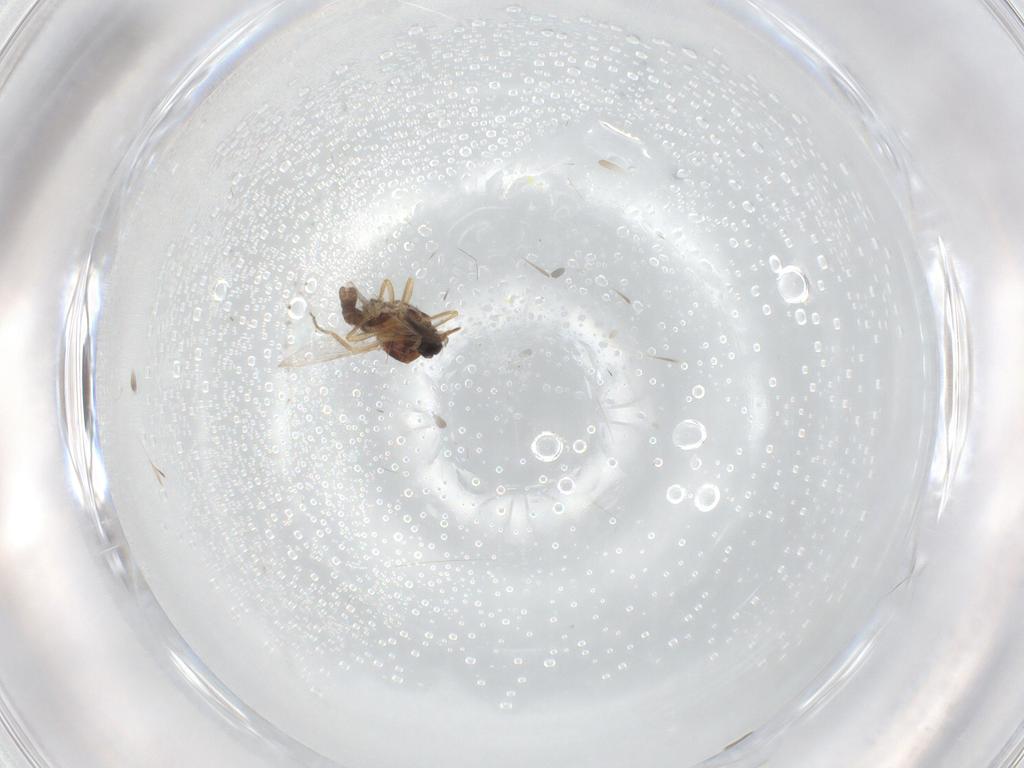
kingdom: Animalia
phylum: Arthropoda
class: Insecta
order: Diptera
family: Ceratopogonidae
